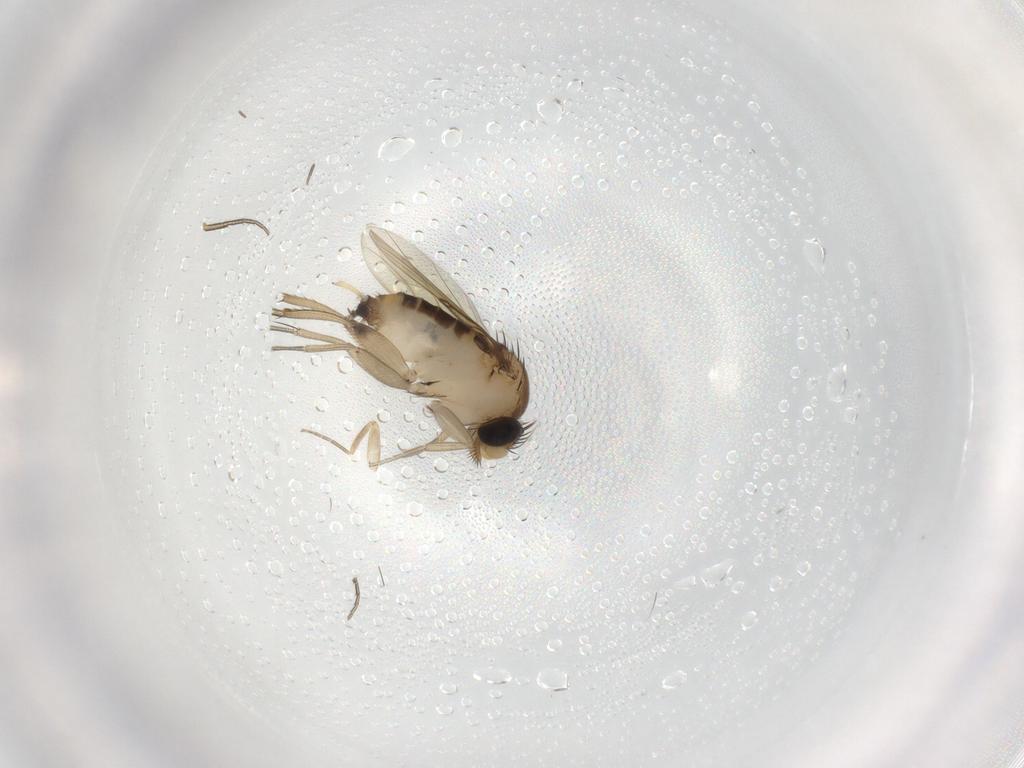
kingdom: Animalia
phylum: Arthropoda
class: Insecta
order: Diptera
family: Phoridae
